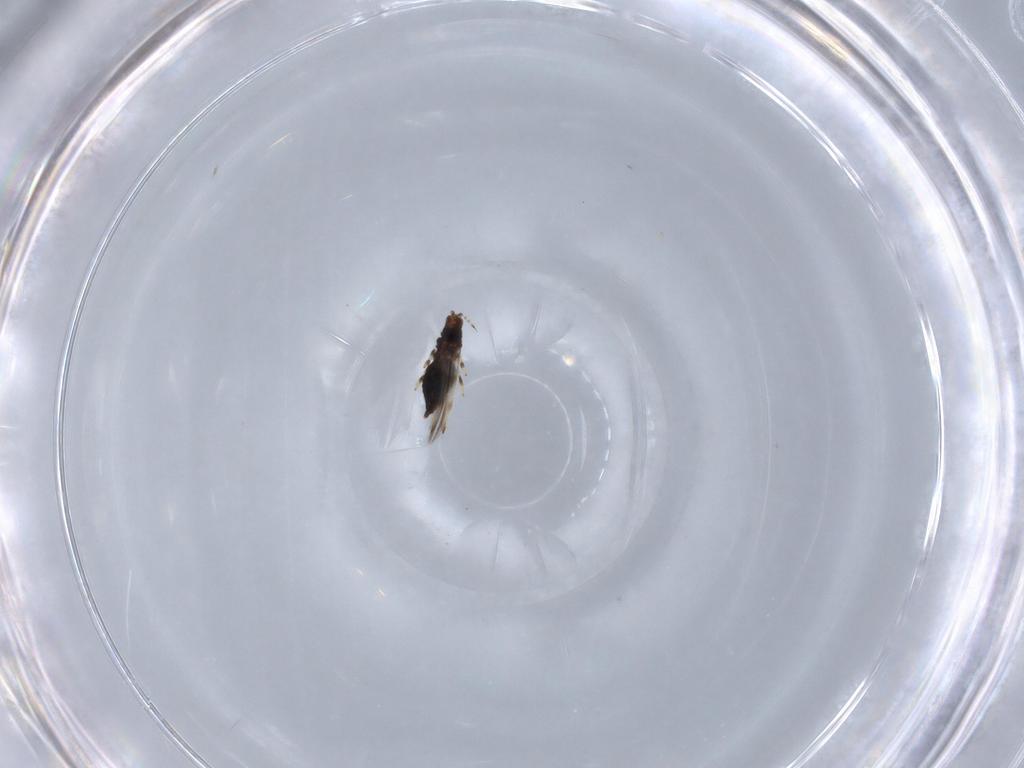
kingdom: Animalia
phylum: Arthropoda
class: Insecta
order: Thysanoptera
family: Thripidae
